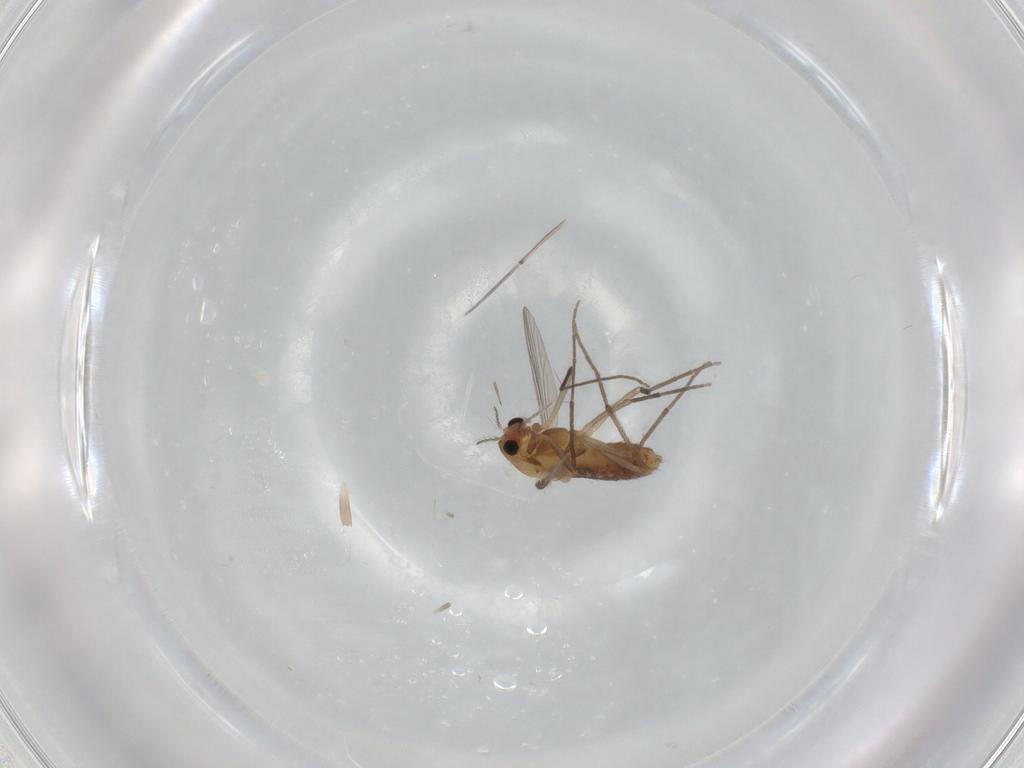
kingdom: Animalia
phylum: Arthropoda
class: Insecta
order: Diptera
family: Chironomidae
